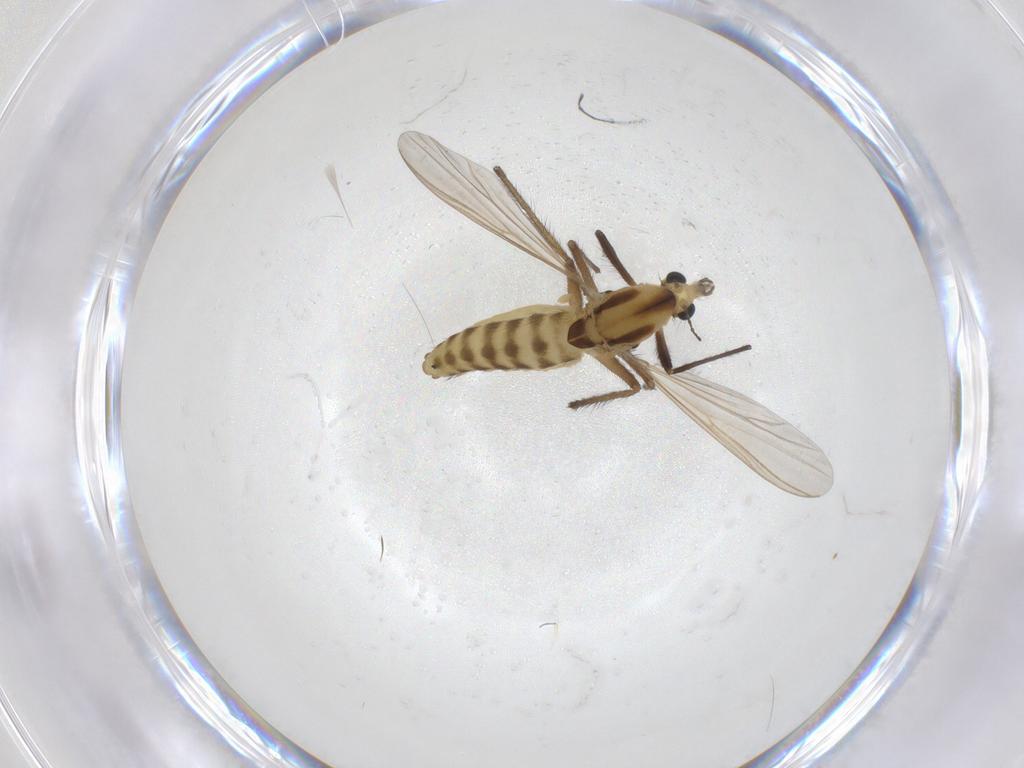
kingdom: Animalia
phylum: Arthropoda
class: Insecta
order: Diptera
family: Chironomidae
